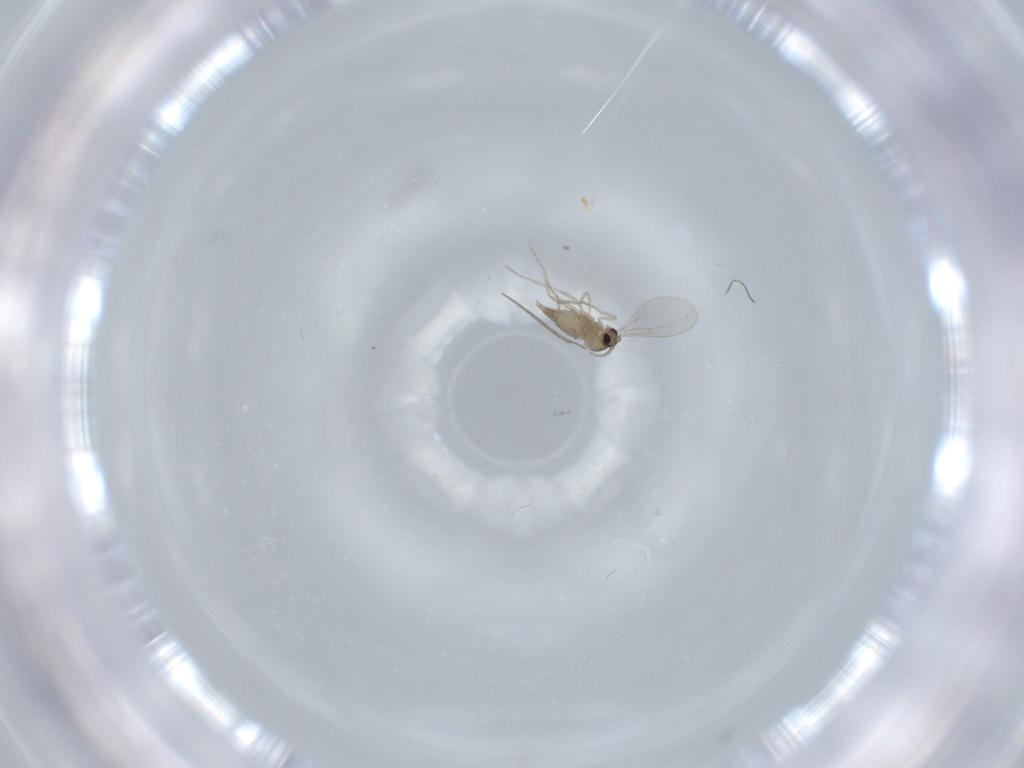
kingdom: Animalia
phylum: Arthropoda
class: Insecta
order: Diptera
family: Cecidomyiidae
